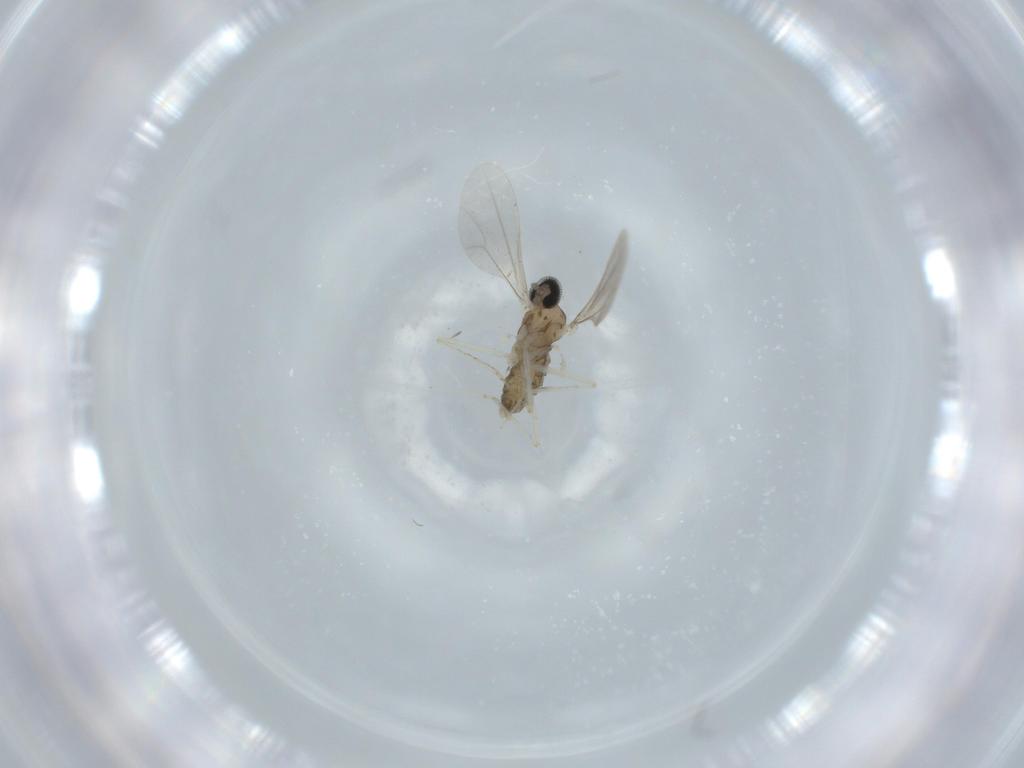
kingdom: Animalia
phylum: Arthropoda
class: Insecta
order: Diptera
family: Cecidomyiidae
